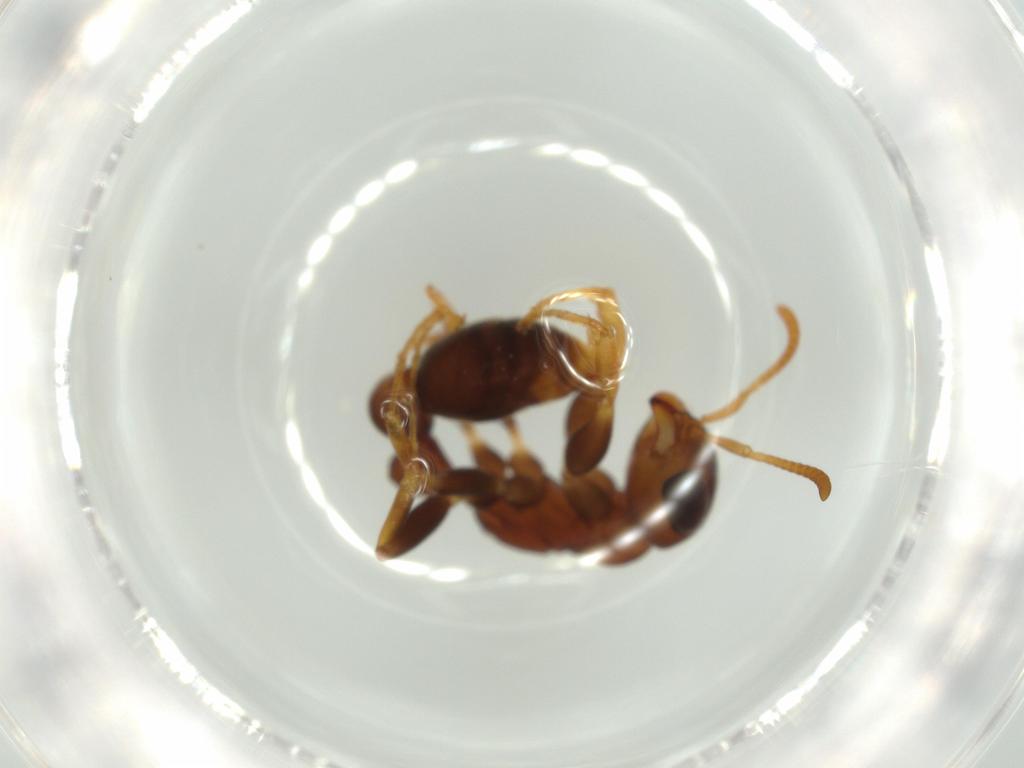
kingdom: Animalia
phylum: Arthropoda
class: Insecta
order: Hymenoptera
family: Formicidae
